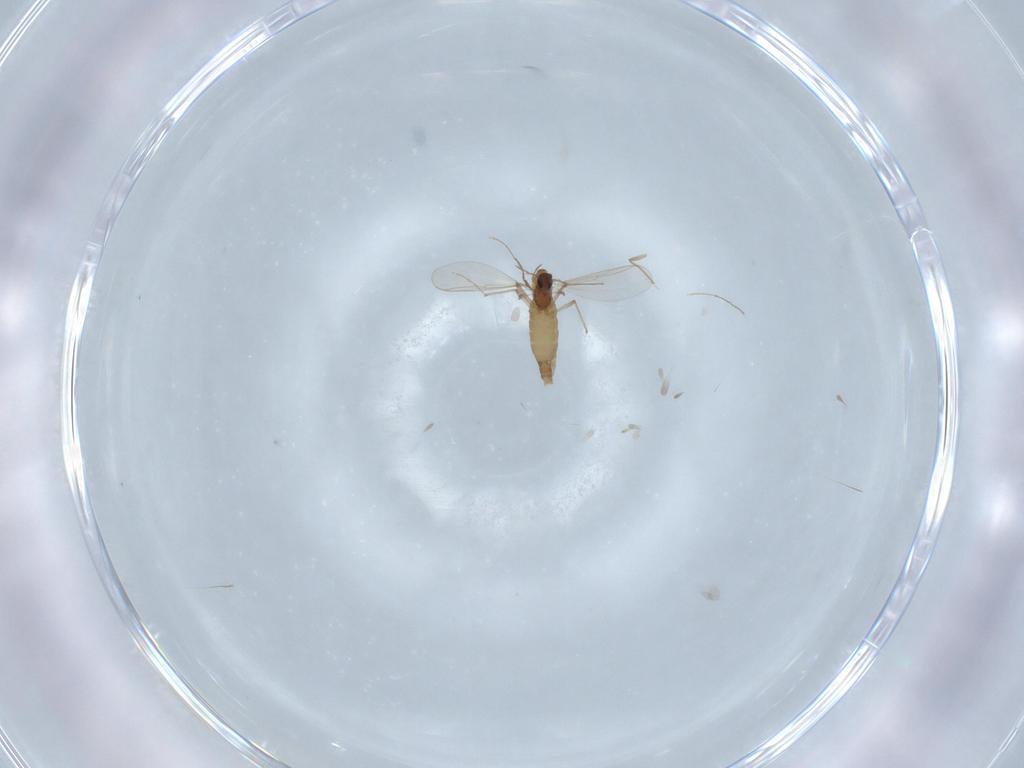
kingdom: Animalia
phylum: Arthropoda
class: Insecta
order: Diptera
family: Chironomidae
